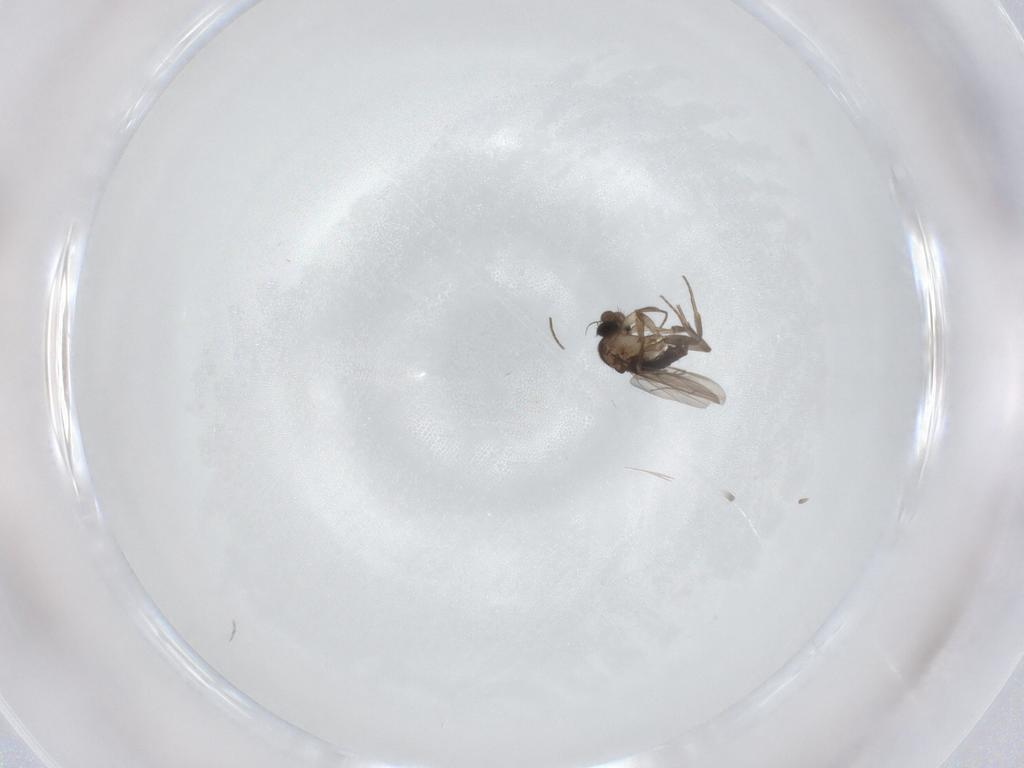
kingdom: Animalia
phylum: Arthropoda
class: Insecta
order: Diptera
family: Phoridae
